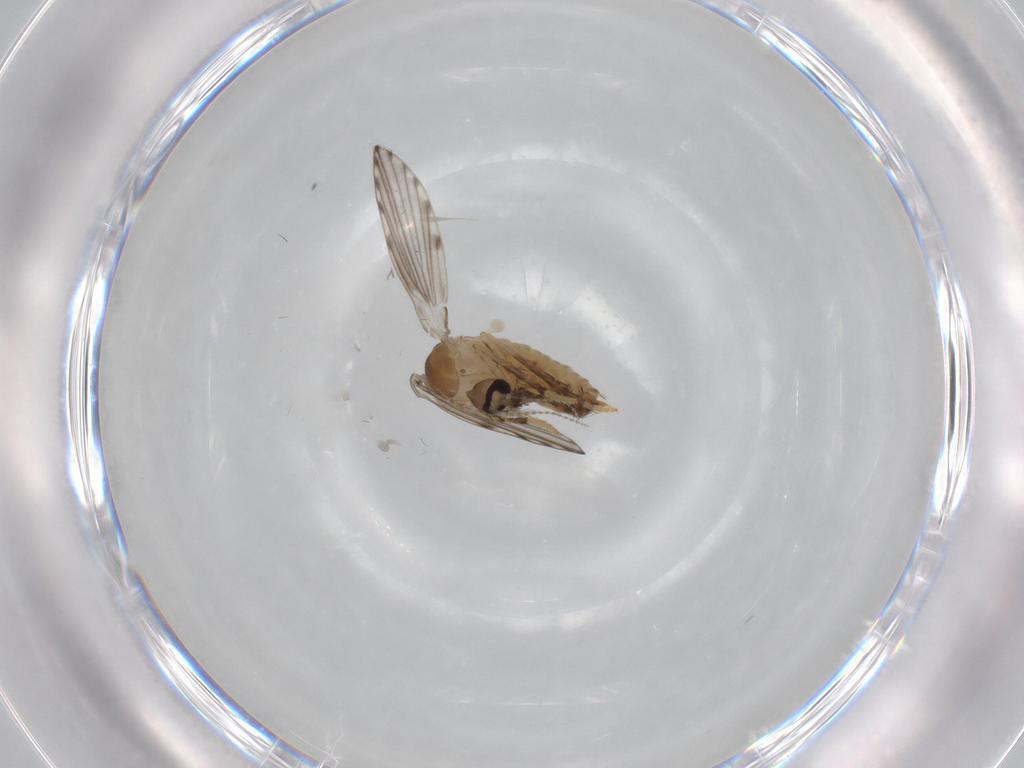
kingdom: Animalia
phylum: Arthropoda
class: Insecta
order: Diptera
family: Psychodidae
